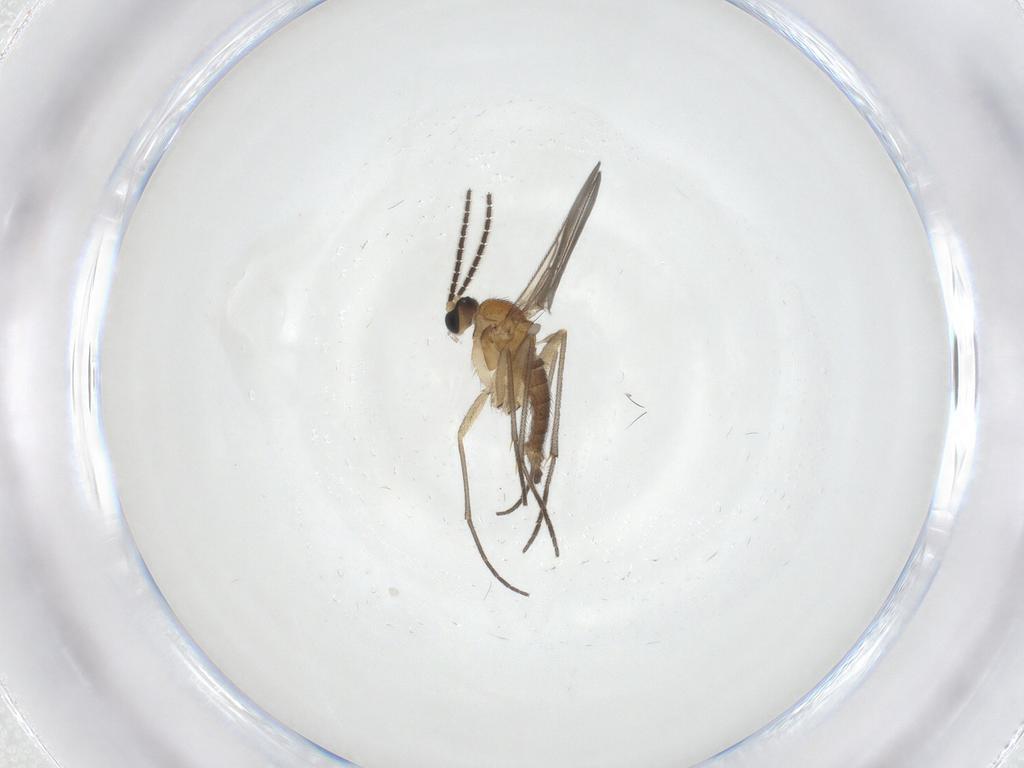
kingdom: Animalia
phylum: Arthropoda
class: Insecta
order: Diptera
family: Sciaridae
